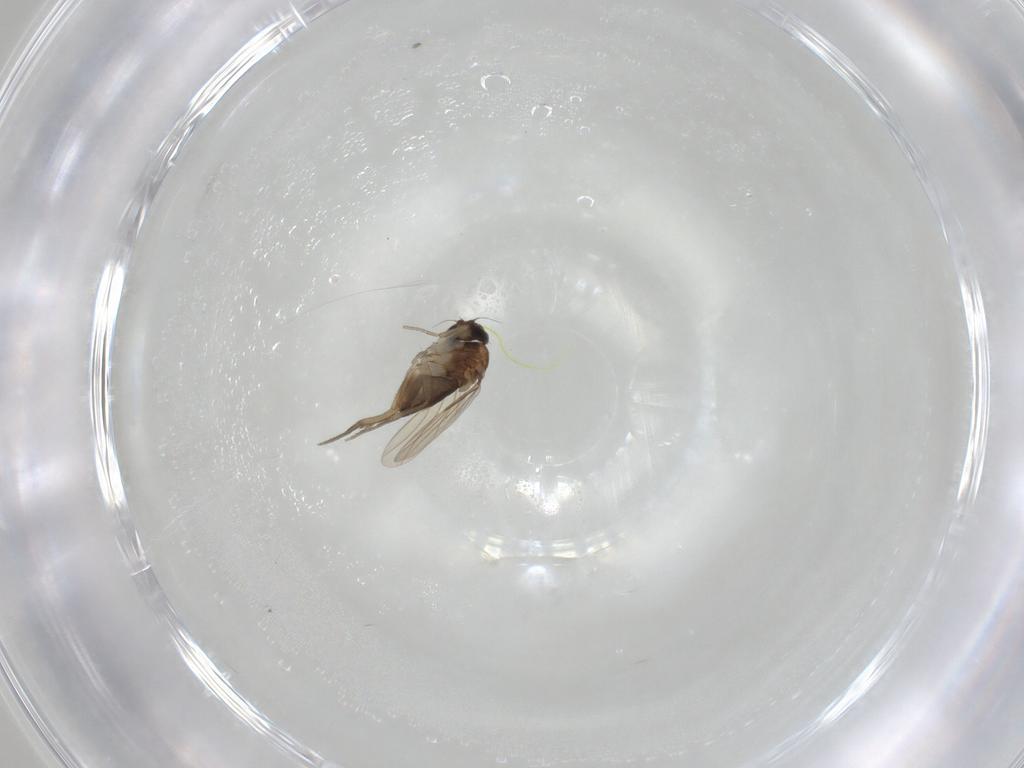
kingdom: Animalia
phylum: Arthropoda
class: Insecta
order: Diptera
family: Phoridae
